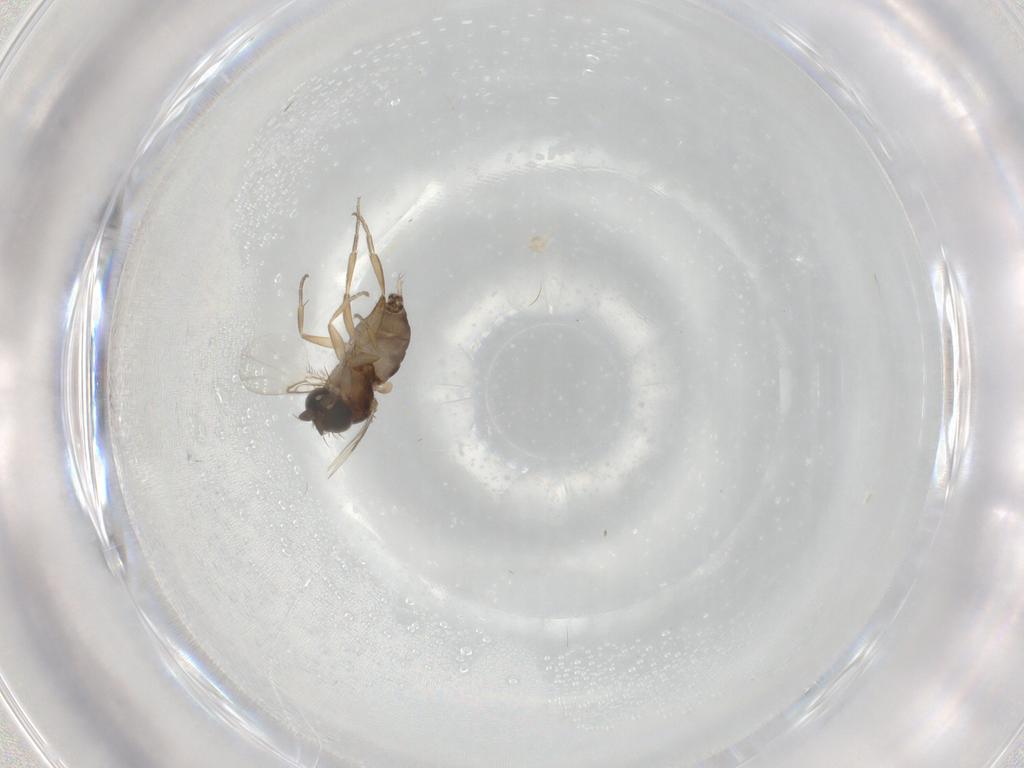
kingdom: Animalia
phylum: Arthropoda
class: Insecta
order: Diptera
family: Phoridae
